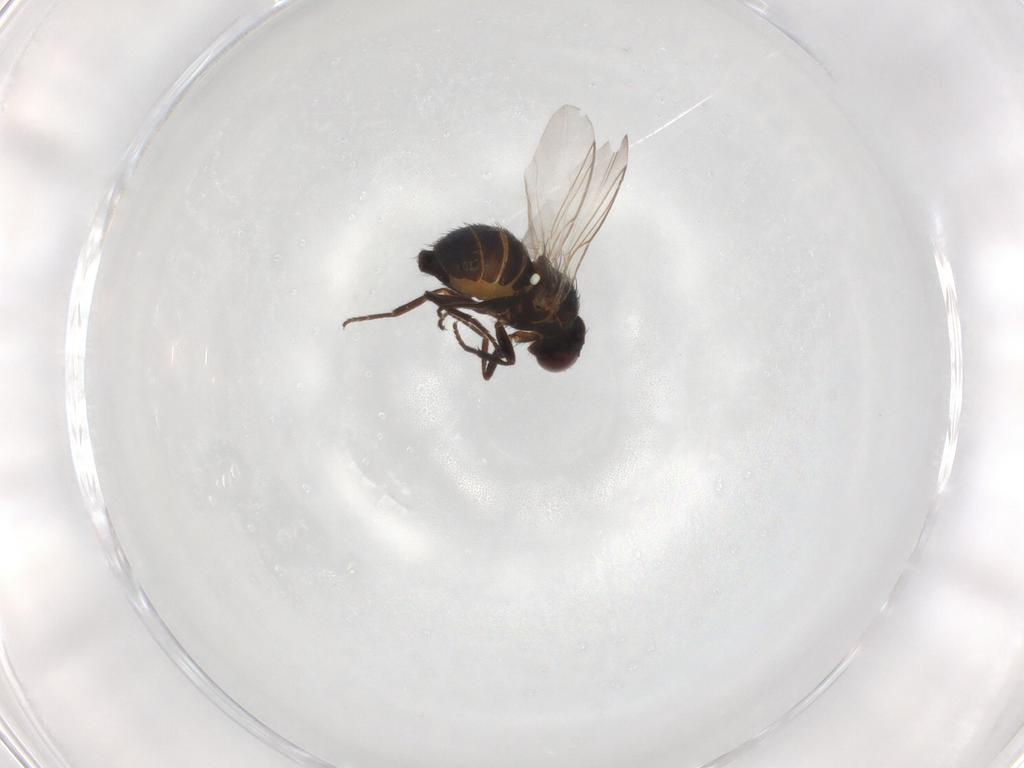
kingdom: Animalia
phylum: Arthropoda
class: Insecta
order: Diptera
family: Agromyzidae
